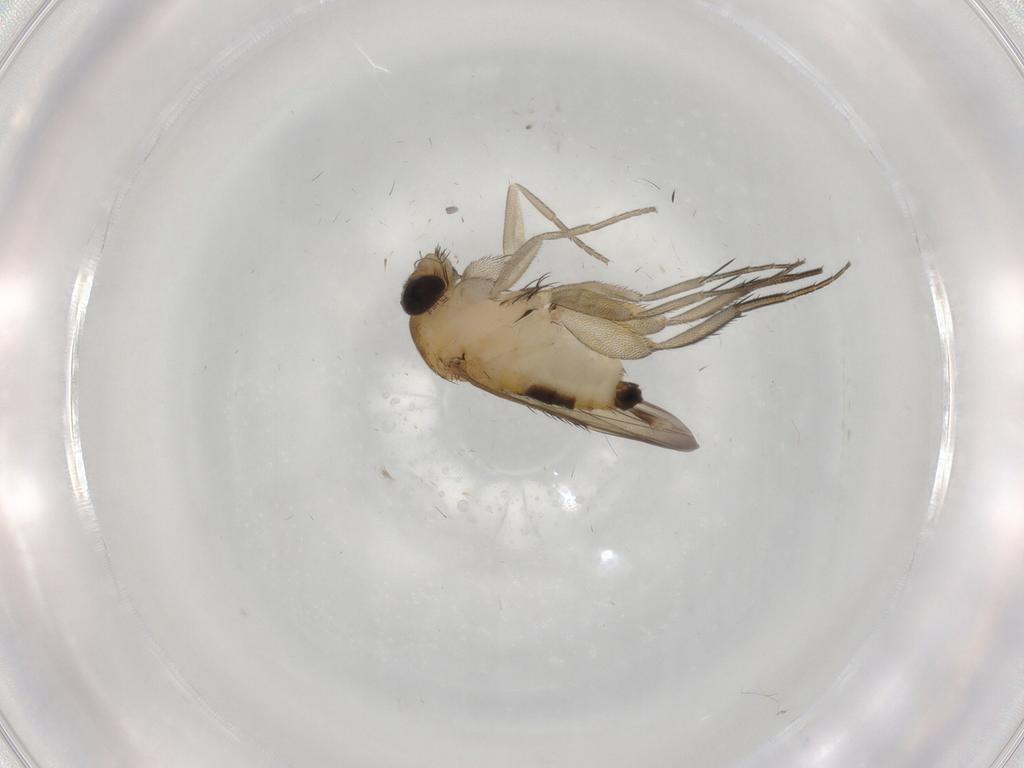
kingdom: Animalia
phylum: Arthropoda
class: Insecta
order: Diptera
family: Phoridae
